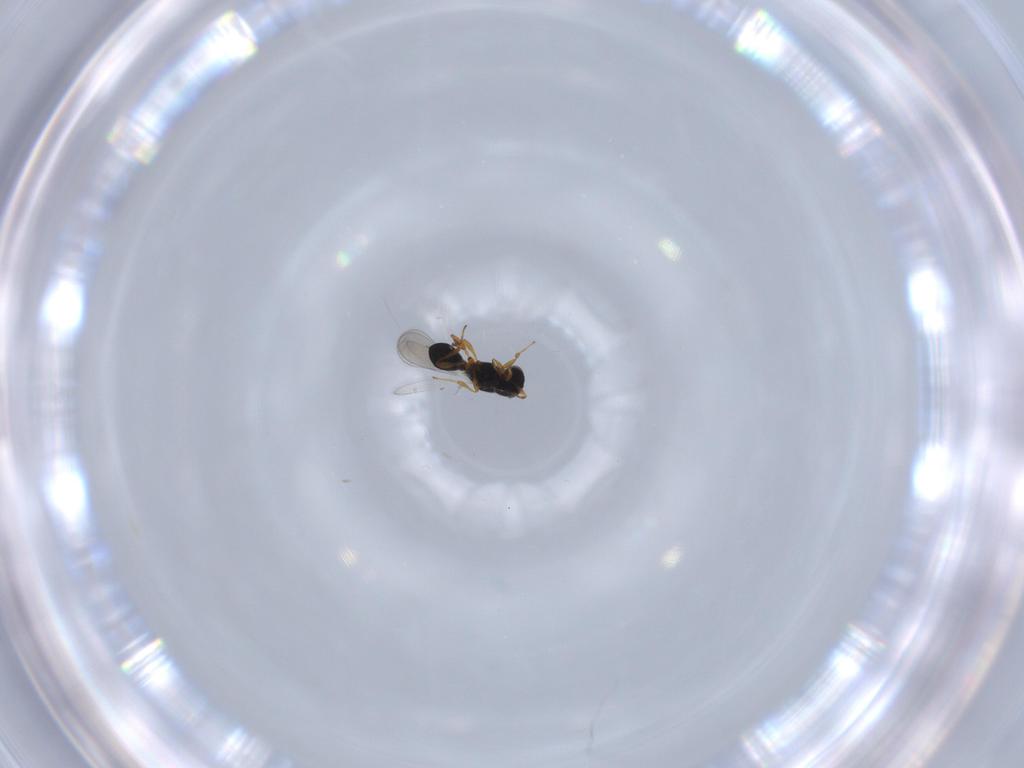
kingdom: Animalia
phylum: Arthropoda
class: Insecta
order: Hymenoptera
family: Platygastridae
